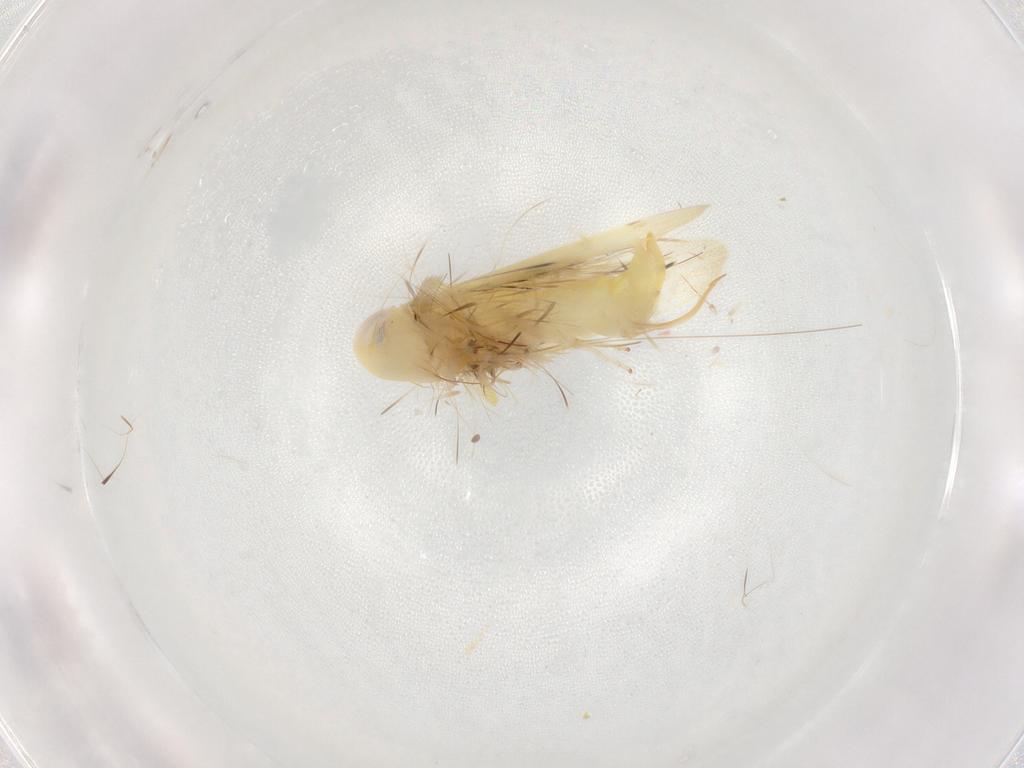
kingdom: Animalia
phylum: Arthropoda
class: Insecta
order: Hemiptera
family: Cicadellidae
